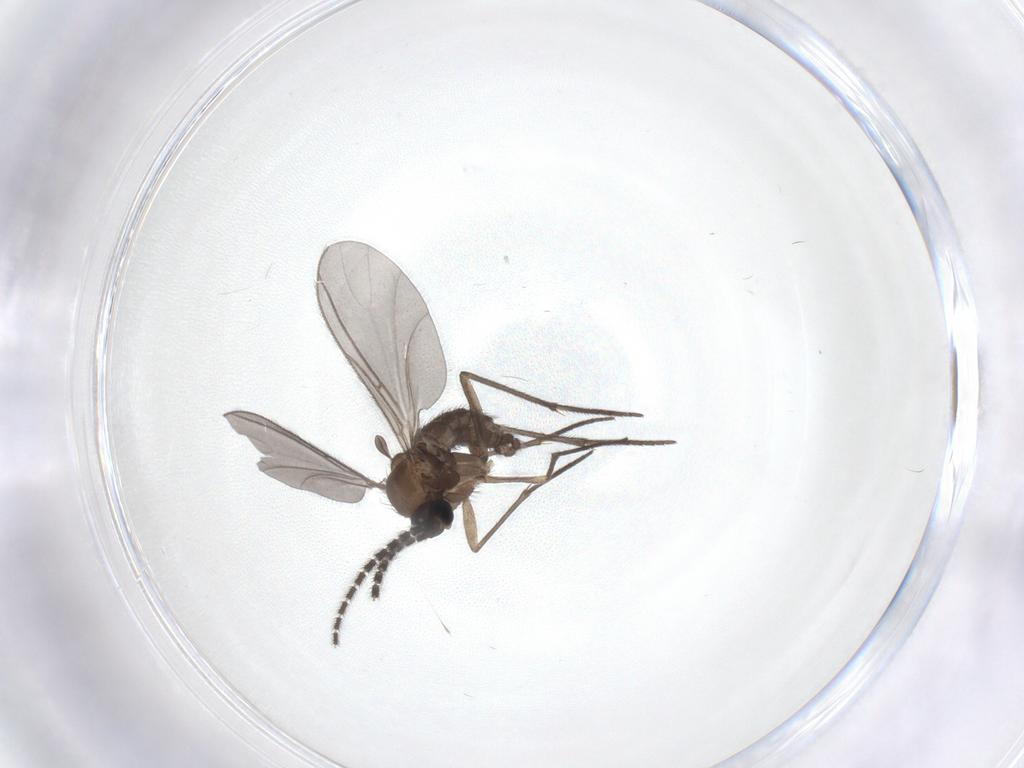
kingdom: Animalia
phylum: Arthropoda
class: Insecta
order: Diptera
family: Sciaridae
